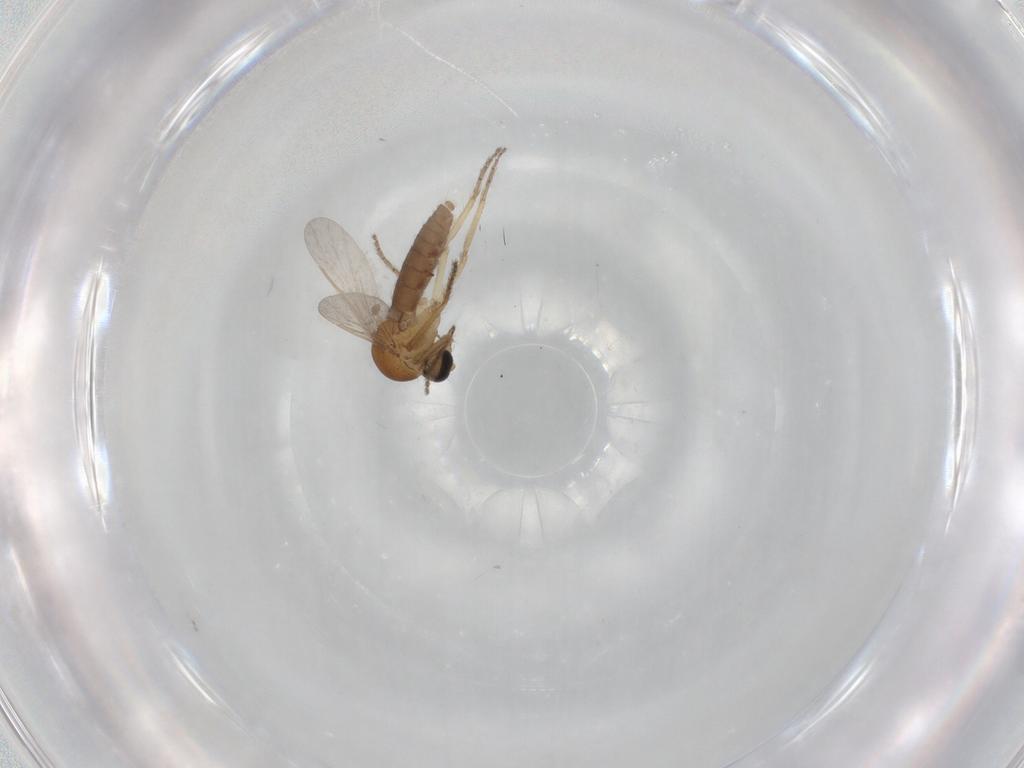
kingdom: Animalia
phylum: Arthropoda
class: Insecta
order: Diptera
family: Ceratopogonidae
